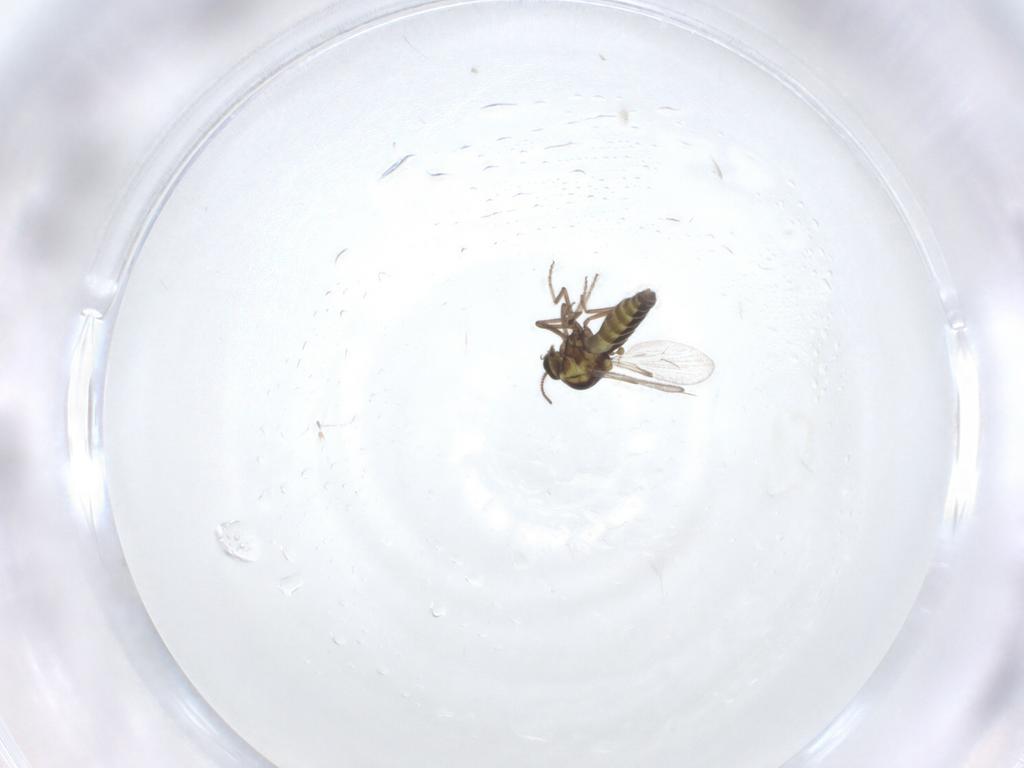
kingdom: Animalia
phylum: Arthropoda
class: Insecta
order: Diptera
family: Ceratopogonidae
